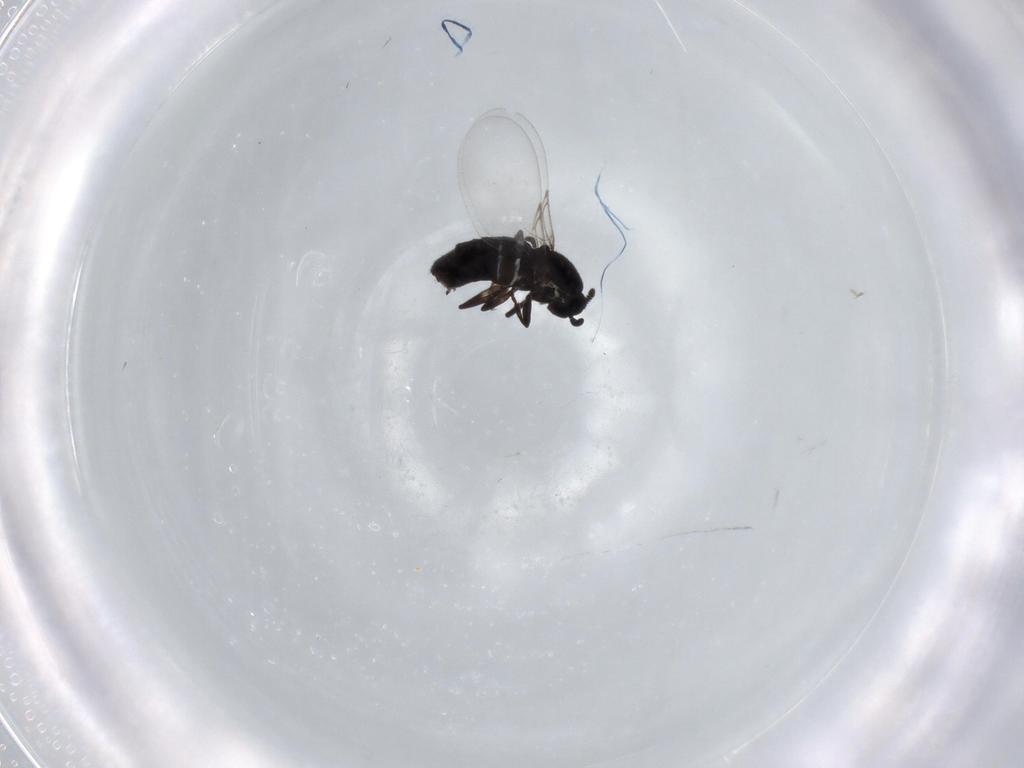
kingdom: Animalia
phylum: Arthropoda
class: Insecta
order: Diptera
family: Scatopsidae
